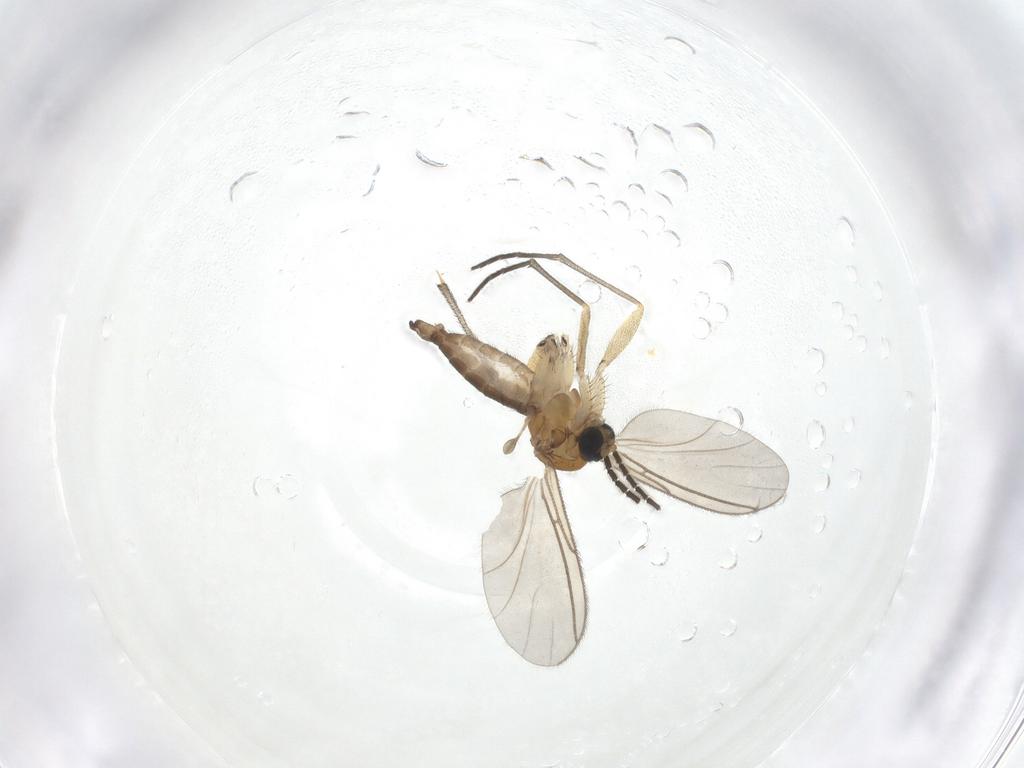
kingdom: Animalia
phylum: Arthropoda
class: Insecta
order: Diptera
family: Sciaridae
